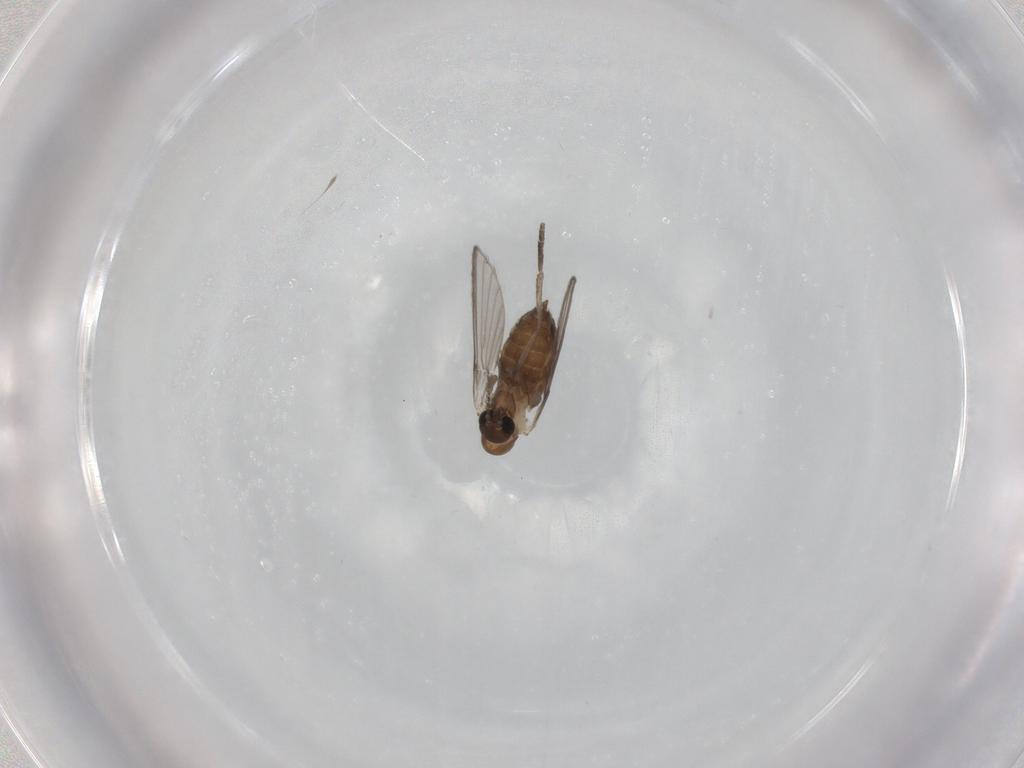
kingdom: Animalia
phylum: Arthropoda
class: Insecta
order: Diptera
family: Psychodidae
